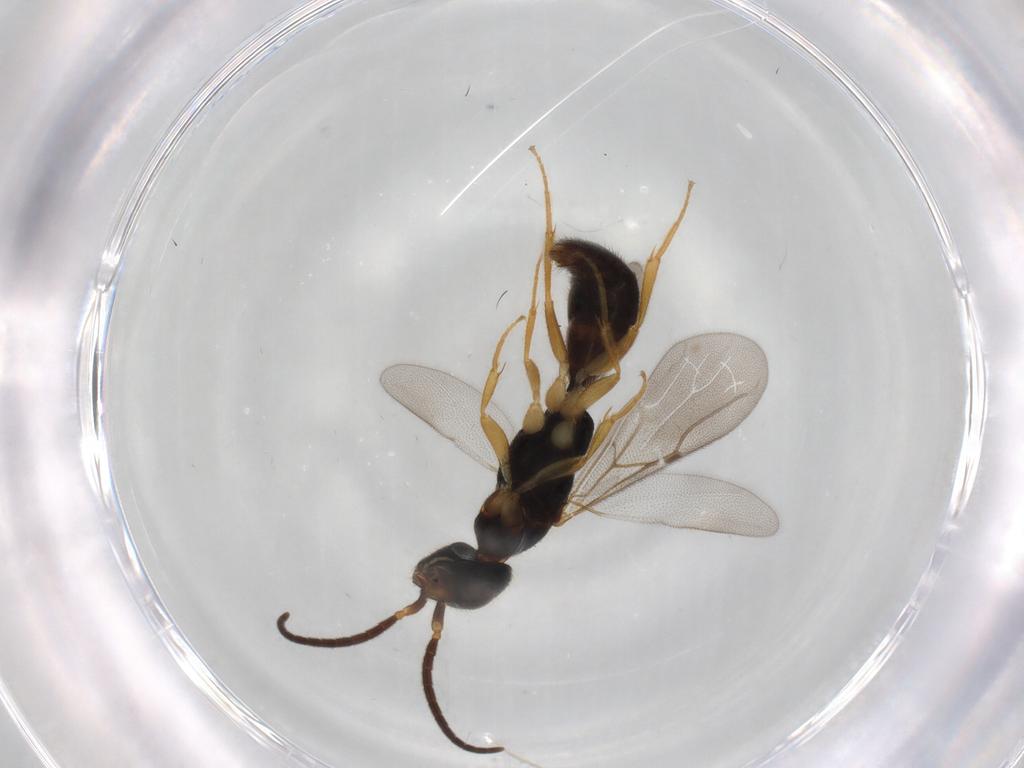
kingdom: Animalia
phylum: Arthropoda
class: Insecta
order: Hymenoptera
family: Bethylidae
